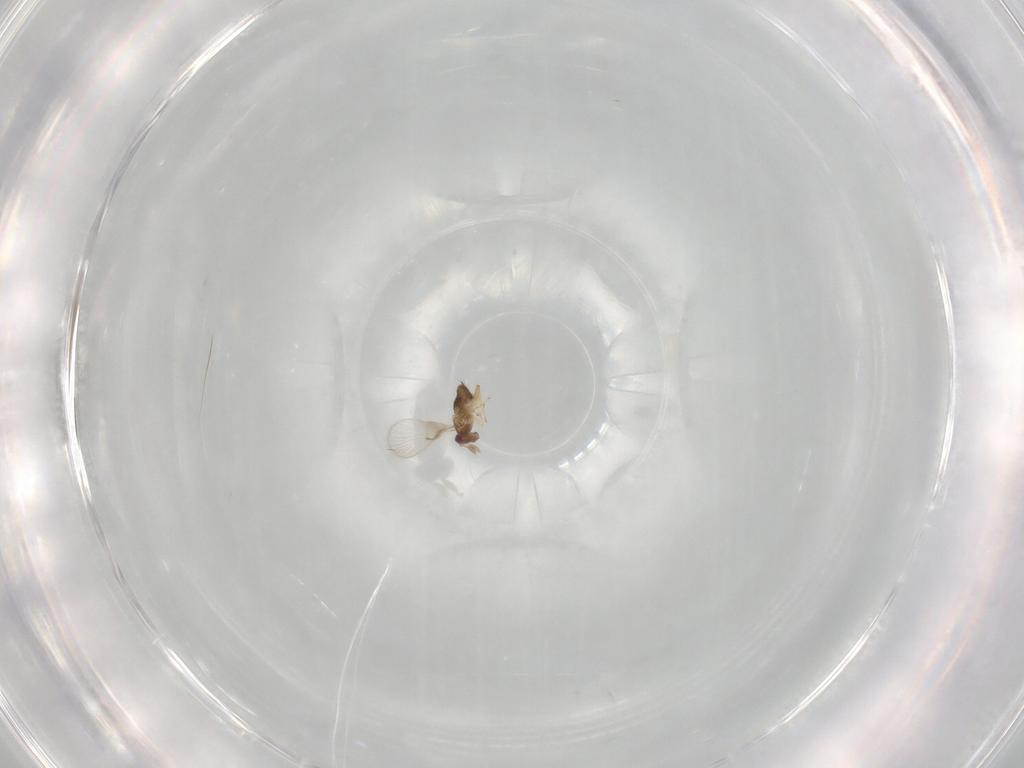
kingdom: Animalia
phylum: Arthropoda
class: Insecta
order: Hymenoptera
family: Trichogrammatidae
